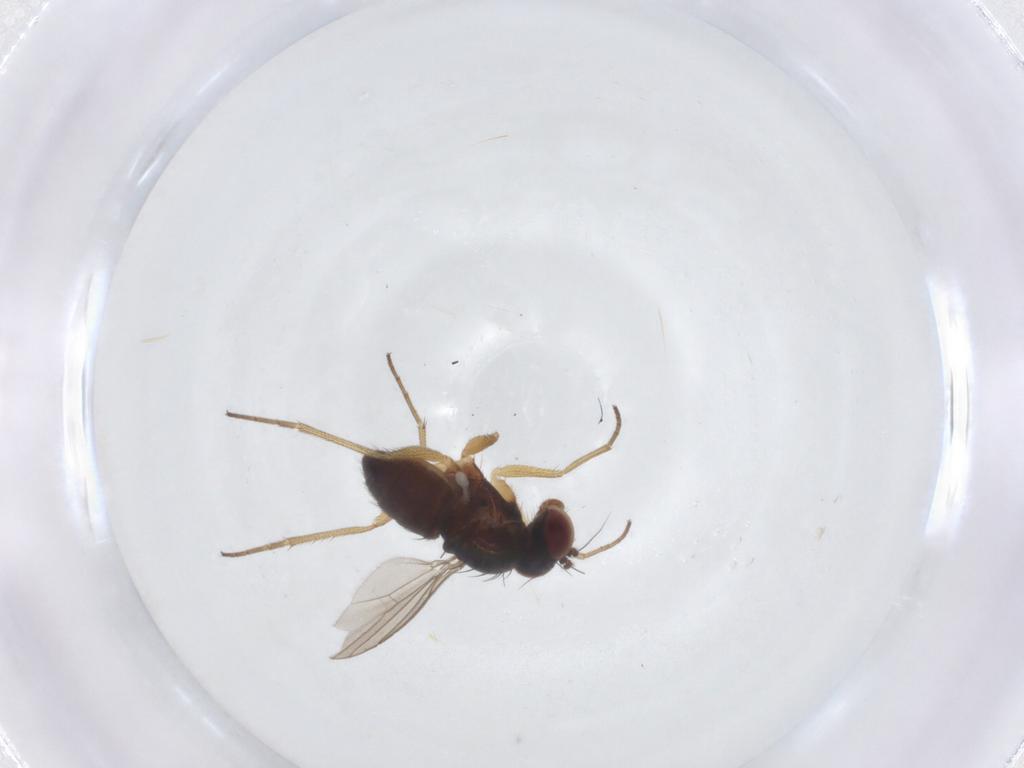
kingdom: Animalia
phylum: Arthropoda
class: Insecta
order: Diptera
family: Dolichopodidae
